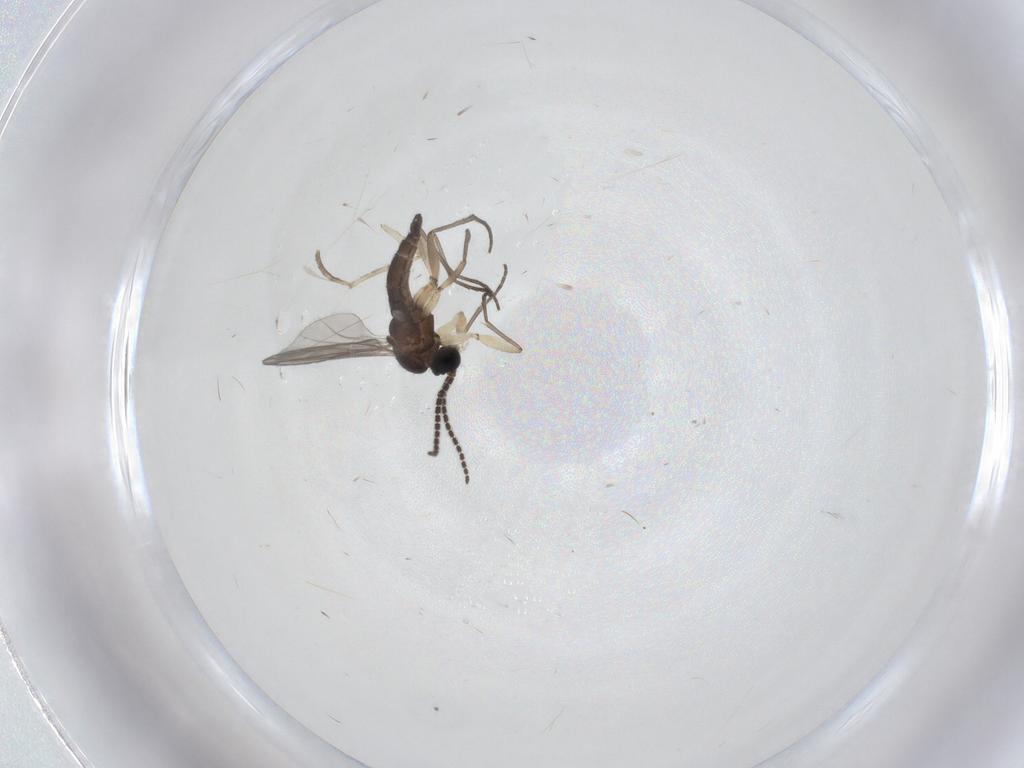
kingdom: Animalia
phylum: Arthropoda
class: Insecta
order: Diptera
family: Sciaridae
